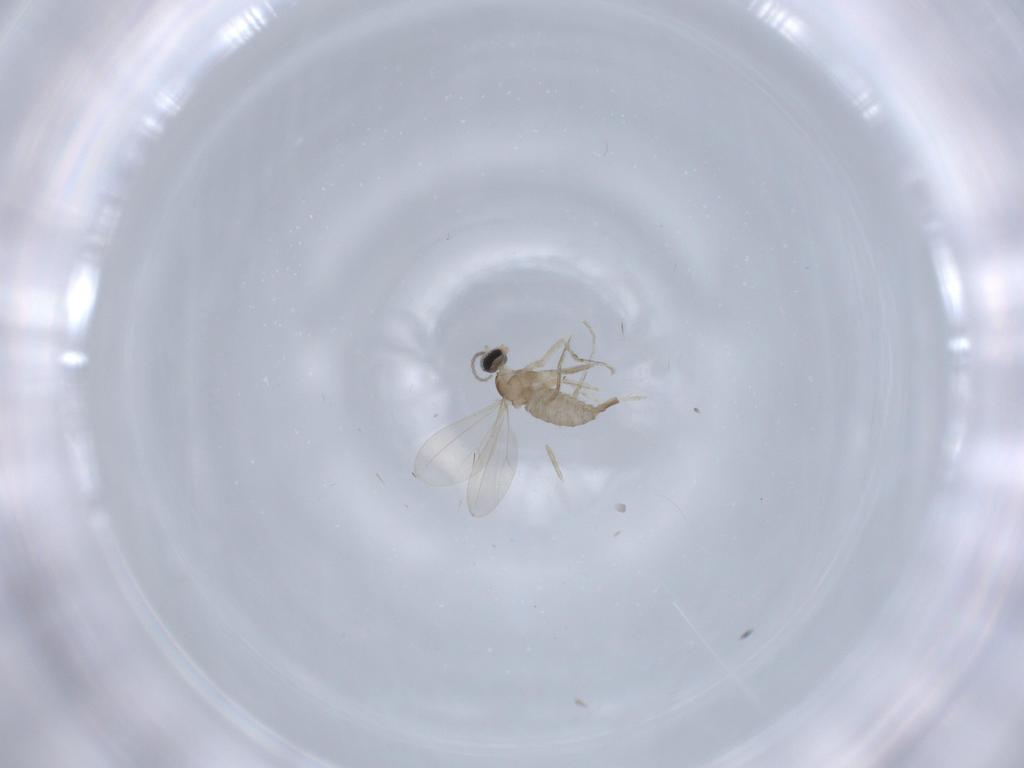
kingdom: Animalia
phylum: Arthropoda
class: Insecta
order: Diptera
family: Cecidomyiidae
